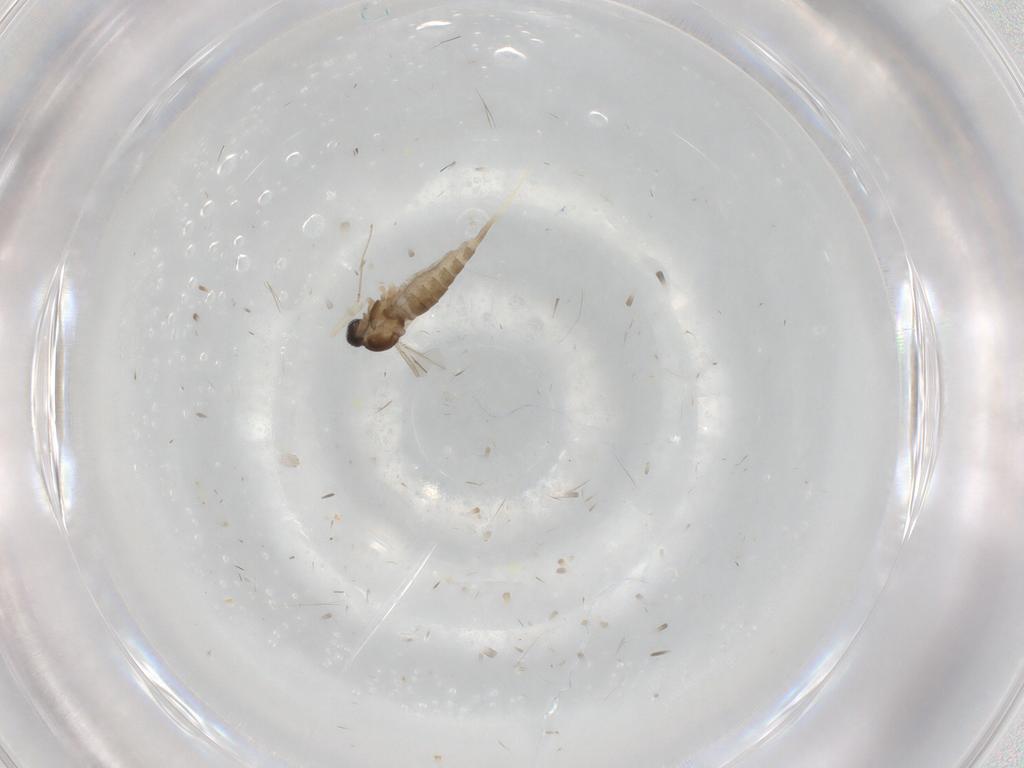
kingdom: Animalia
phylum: Arthropoda
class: Insecta
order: Diptera
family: Cecidomyiidae
